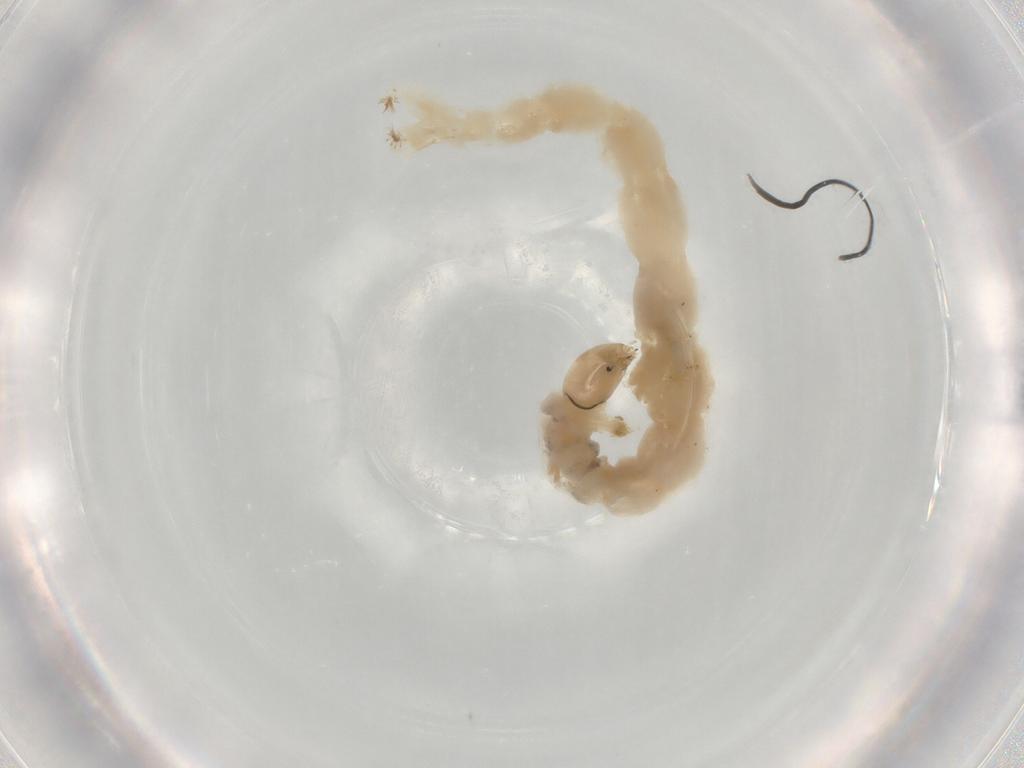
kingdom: Animalia
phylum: Arthropoda
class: Insecta
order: Diptera
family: Chironomidae
